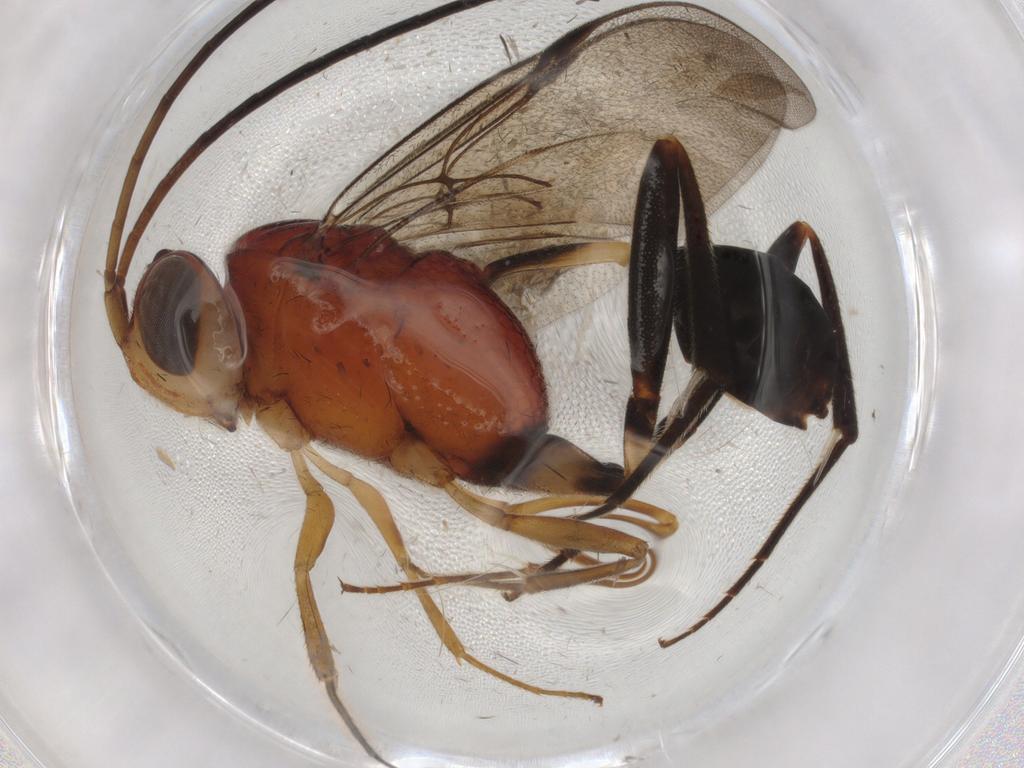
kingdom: Animalia
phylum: Arthropoda
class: Insecta
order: Hymenoptera
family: Evaniidae
